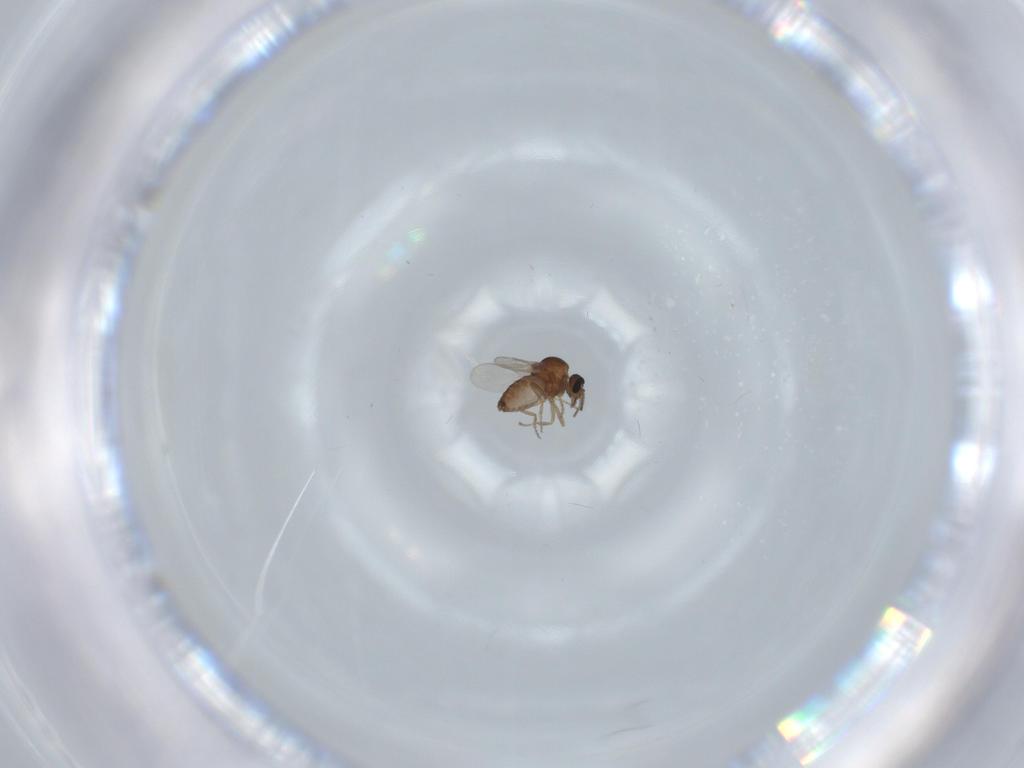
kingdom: Animalia
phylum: Arthropoda
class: Insecta
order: Diptera
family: Ceratopogonidae
